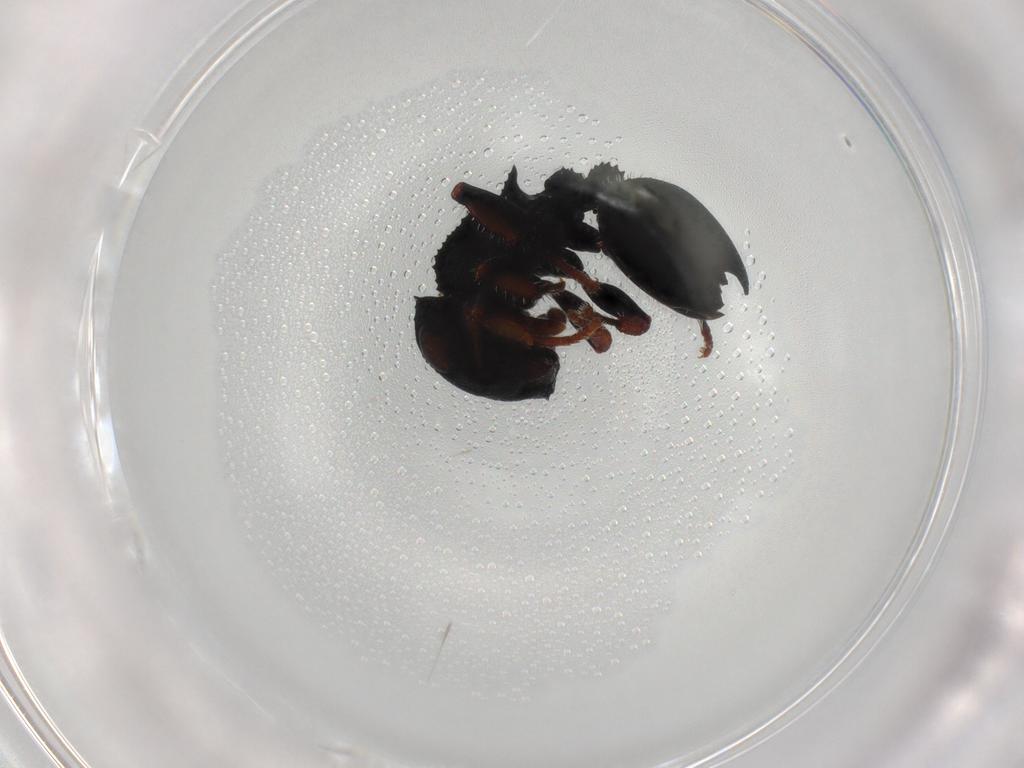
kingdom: Animalia
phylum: Arthropoda
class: Insecta
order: Hymenoptera
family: Formicidae
